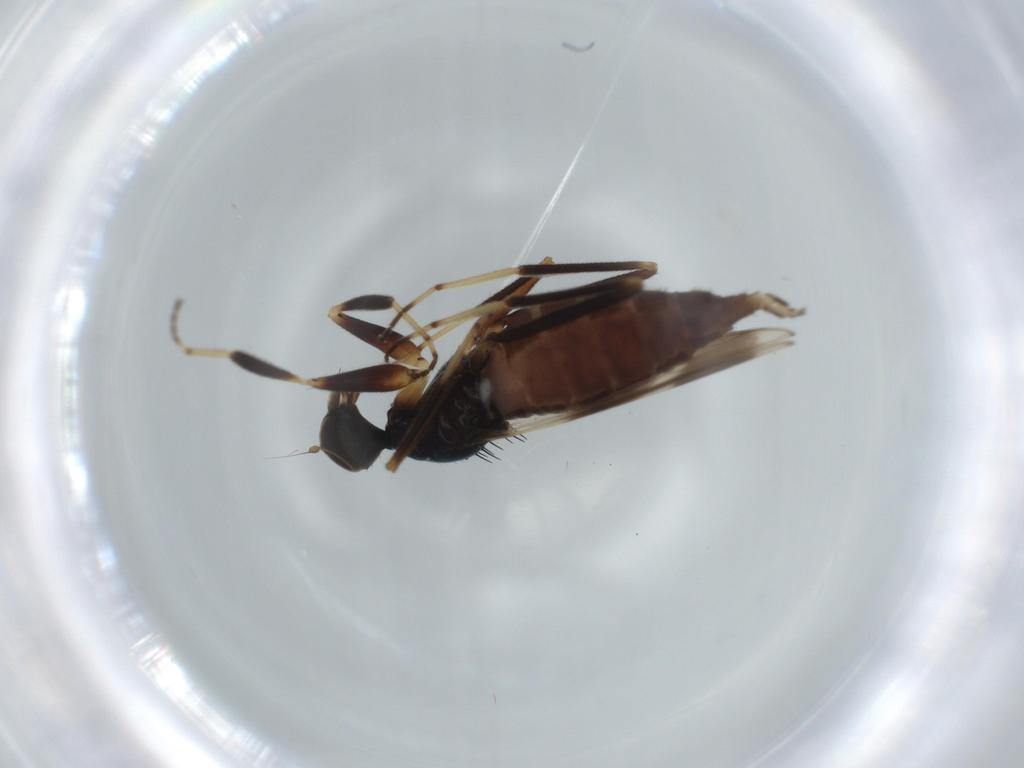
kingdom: Animalia
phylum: Arthropoda
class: Insecta
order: Diptera
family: Hybotidae
